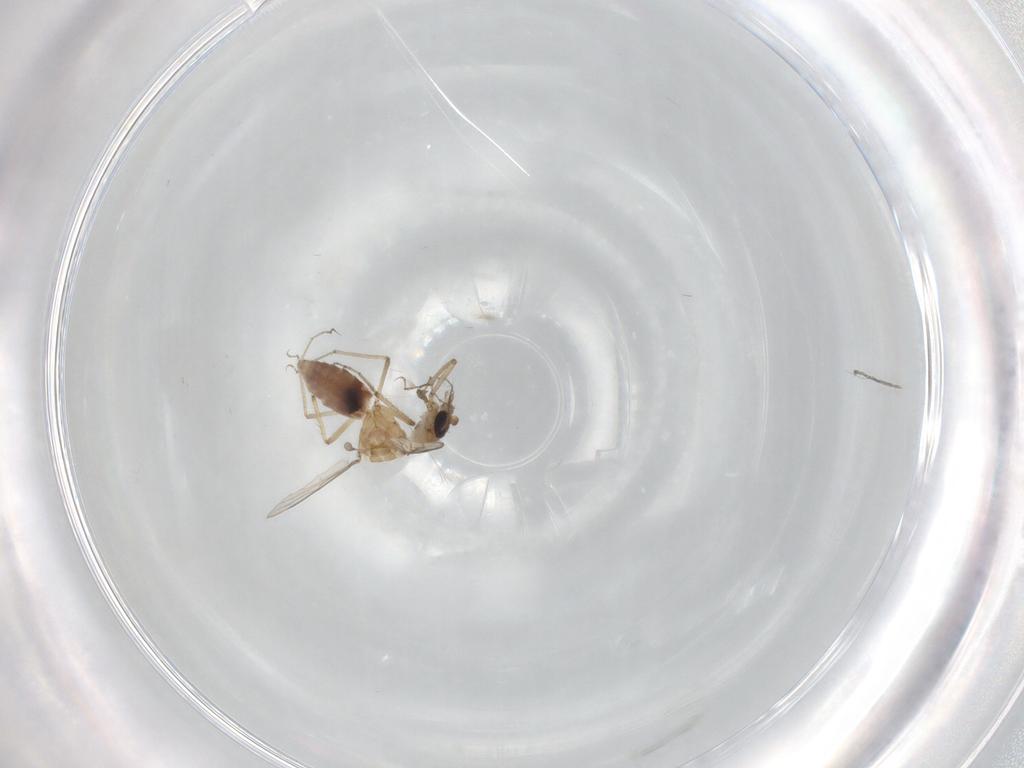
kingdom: Animalia
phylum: Arthropoda
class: Insecta
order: Diptera
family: Ceratopogonidae
